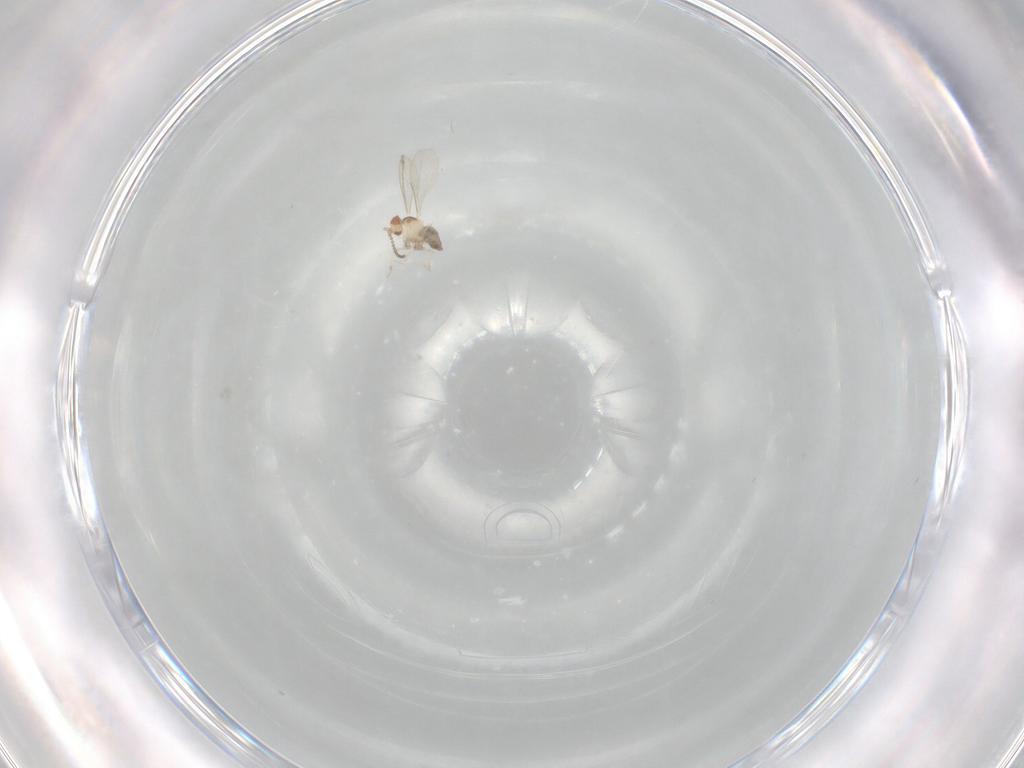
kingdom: Animalia
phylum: Arthropoda
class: Insecta
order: Diptera
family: Cecidomyiidae
